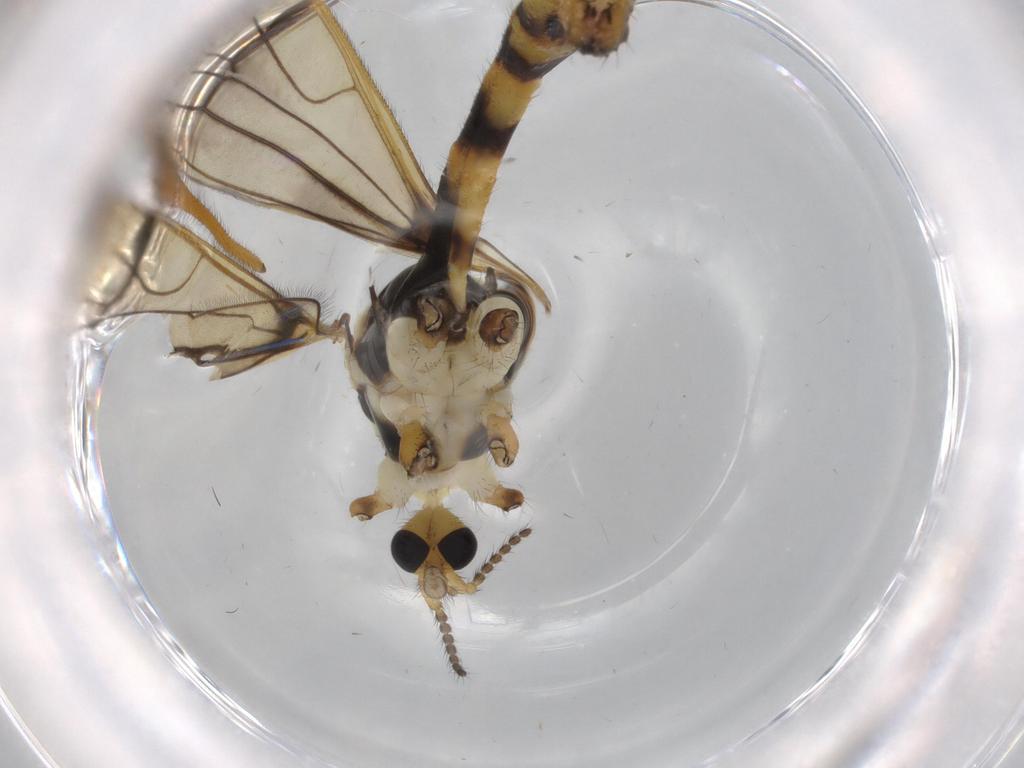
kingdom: Animalia
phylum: Arthropoda
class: Insecta
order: Diptera
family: Limoniidae
